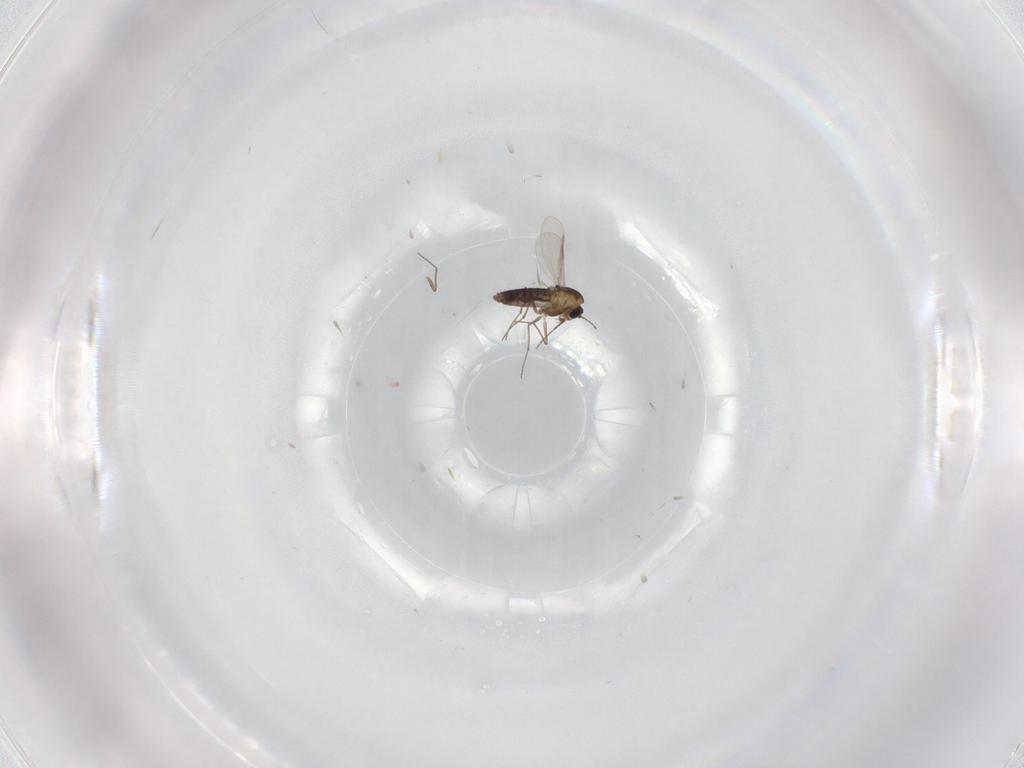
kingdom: Animalia
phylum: Arthropoda
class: Insecta
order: Diptera
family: Chironomidae
